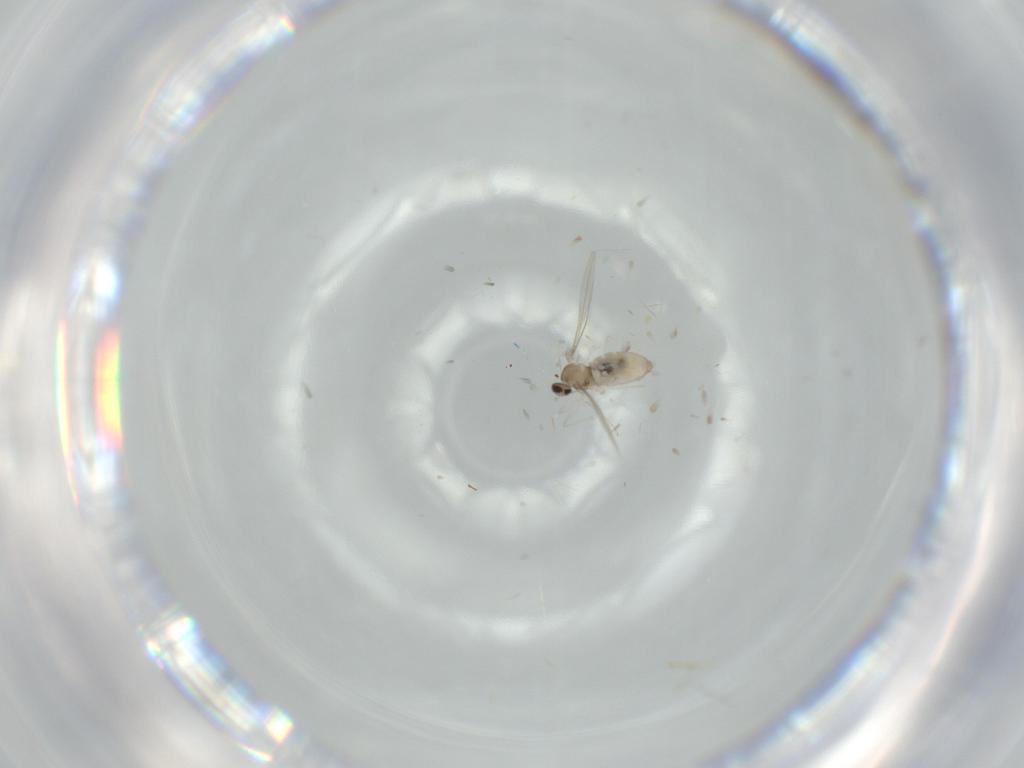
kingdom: Animalia
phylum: Arthropoda
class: Insecta
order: Diptera
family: Cecidomyiidae
